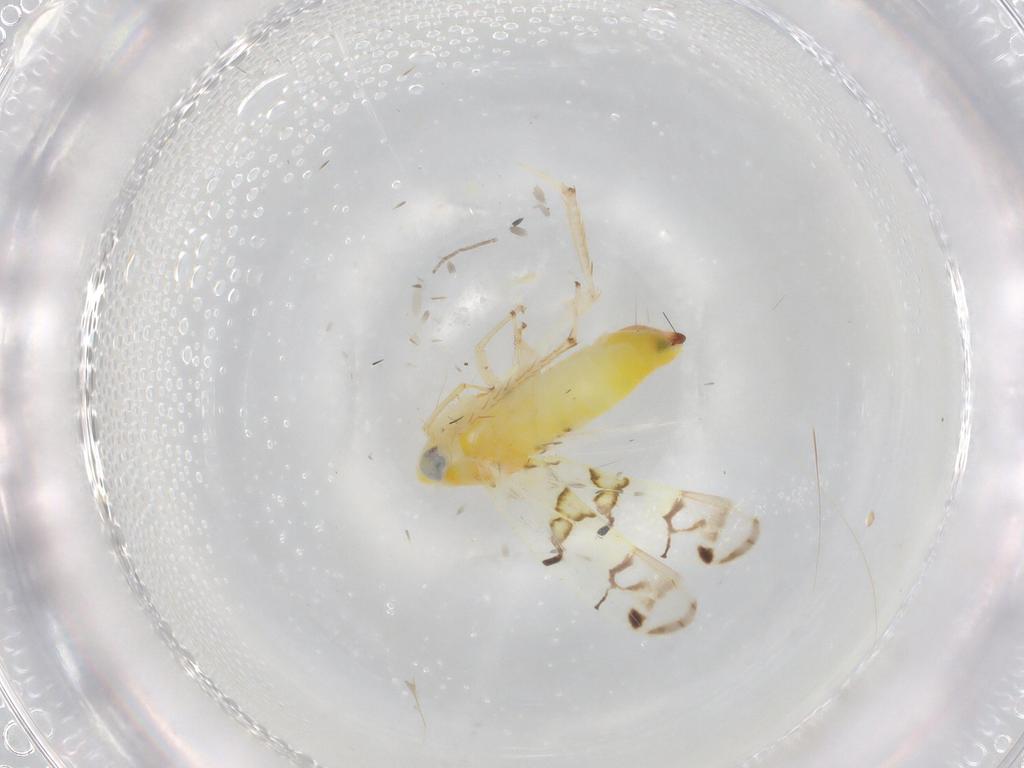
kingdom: Animalia
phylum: Arthropoda
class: Insecta
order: Hemiptera
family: Cicadellidae
